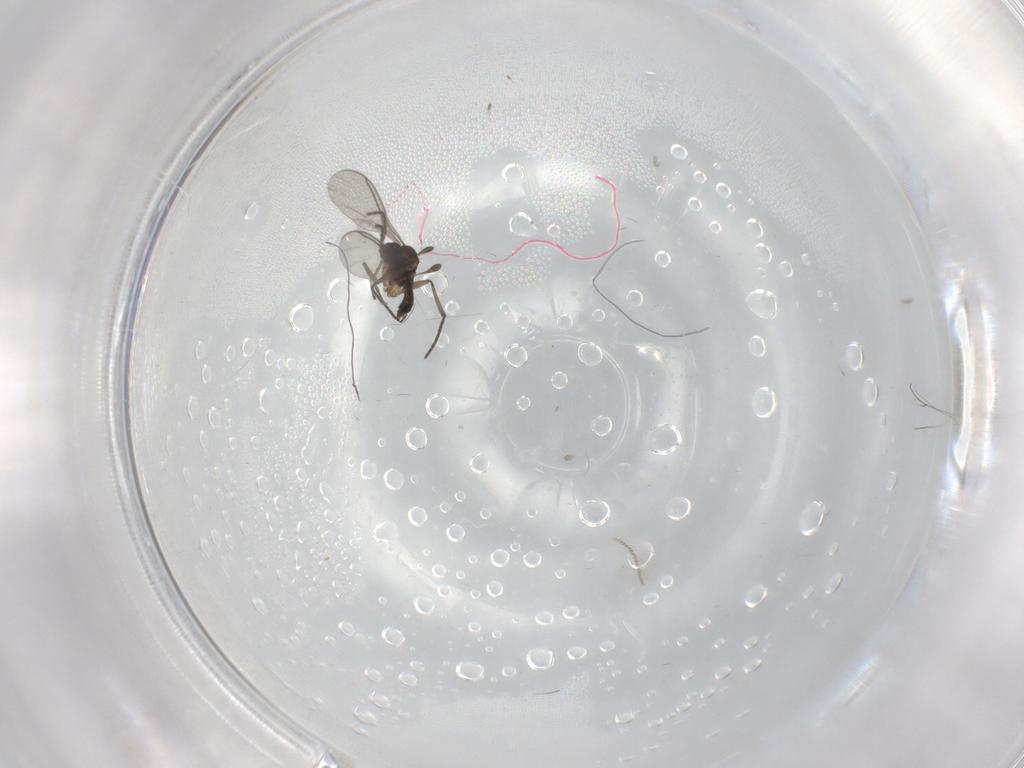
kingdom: Animalia
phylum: Arthropoda
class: Insecta
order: Diptera
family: Sciaridae
